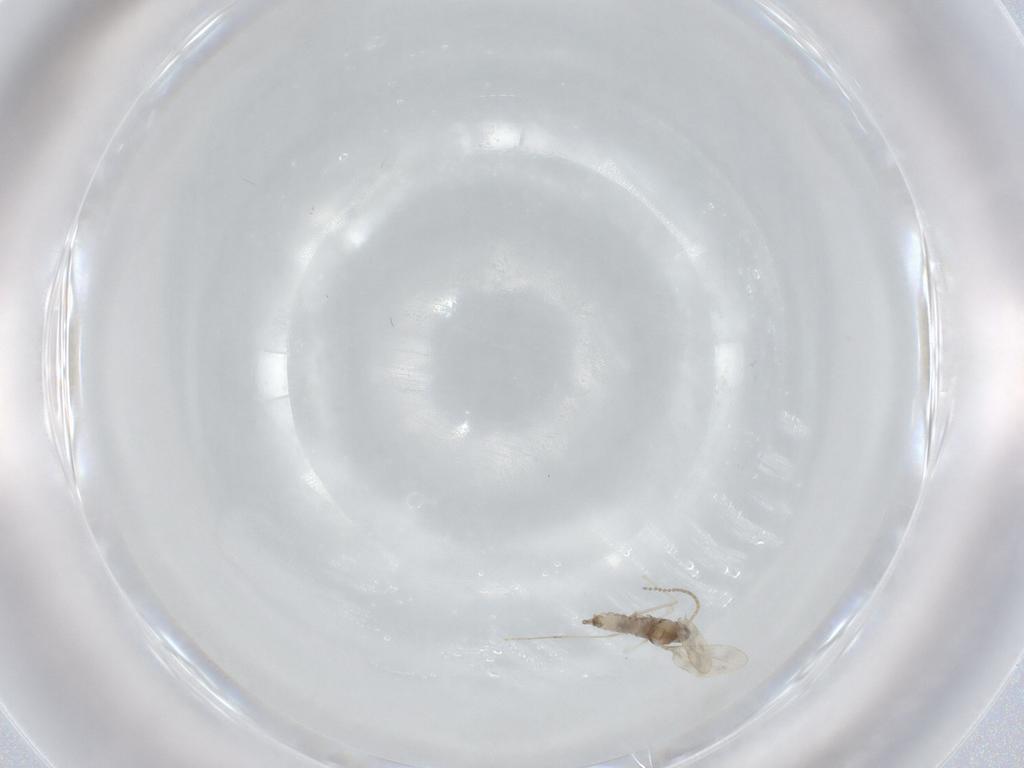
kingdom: Animalia
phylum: Arthropoda
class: Insecta
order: Diptera
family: Cecidomyiidae
